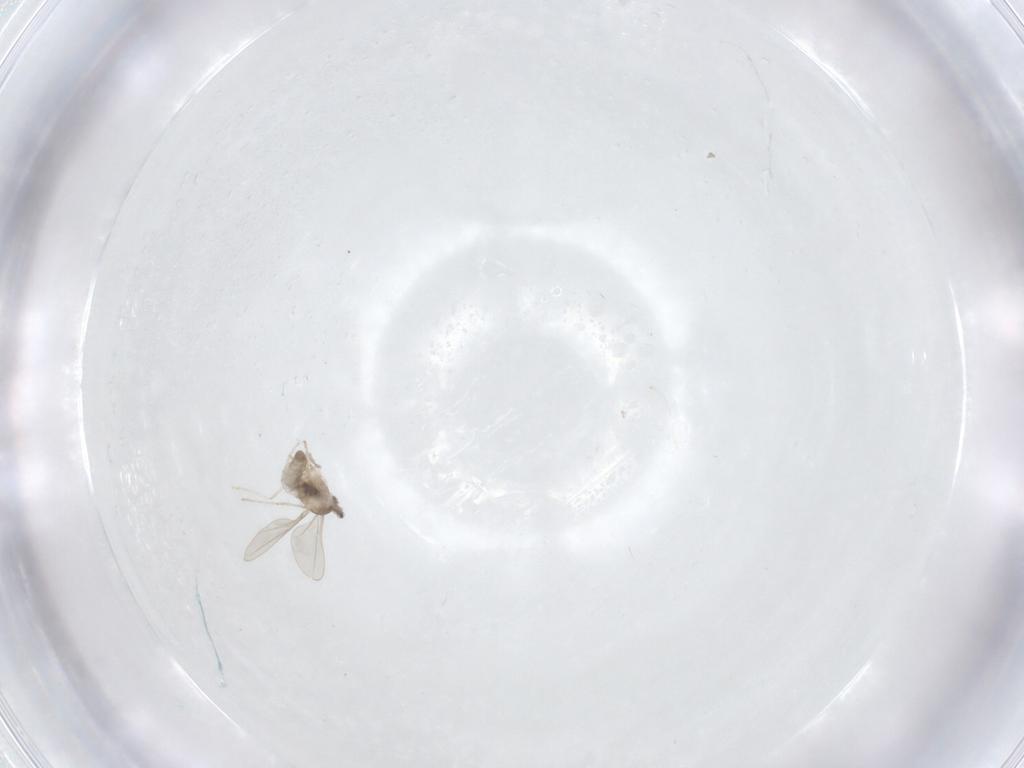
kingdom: Animalia
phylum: Arthropoda
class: Insecta
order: Diptera
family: Cecidomyiidae
